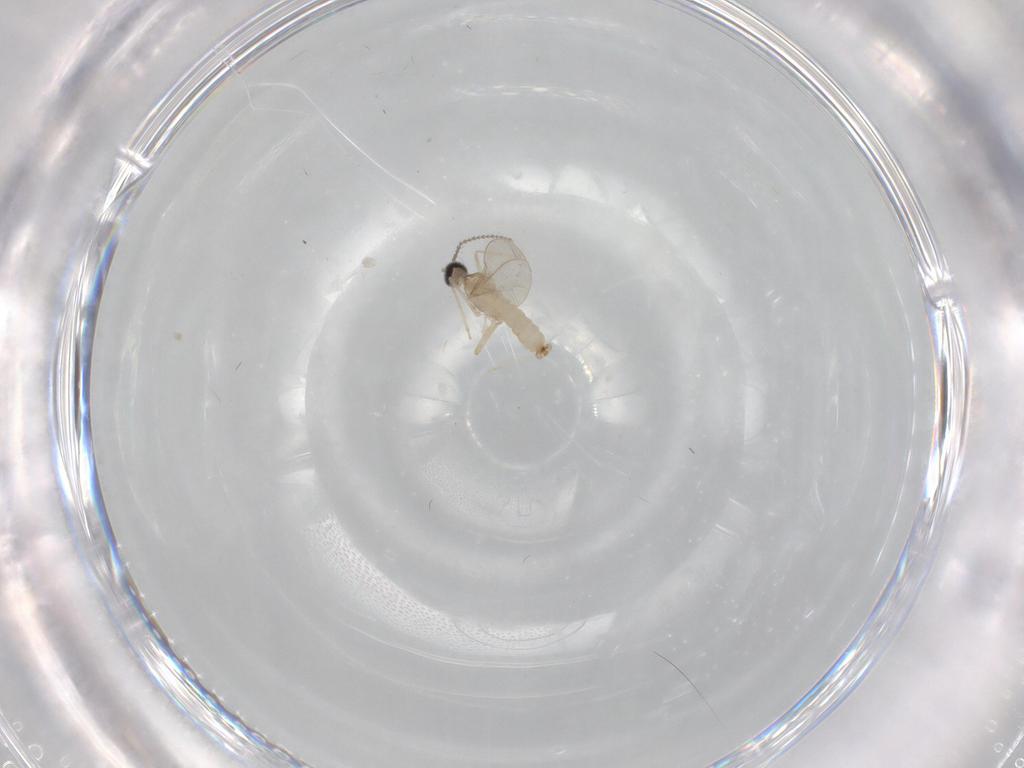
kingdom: Animalia
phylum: Arthropoda
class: Insecta
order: Diptera
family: Cecidomyiidae
